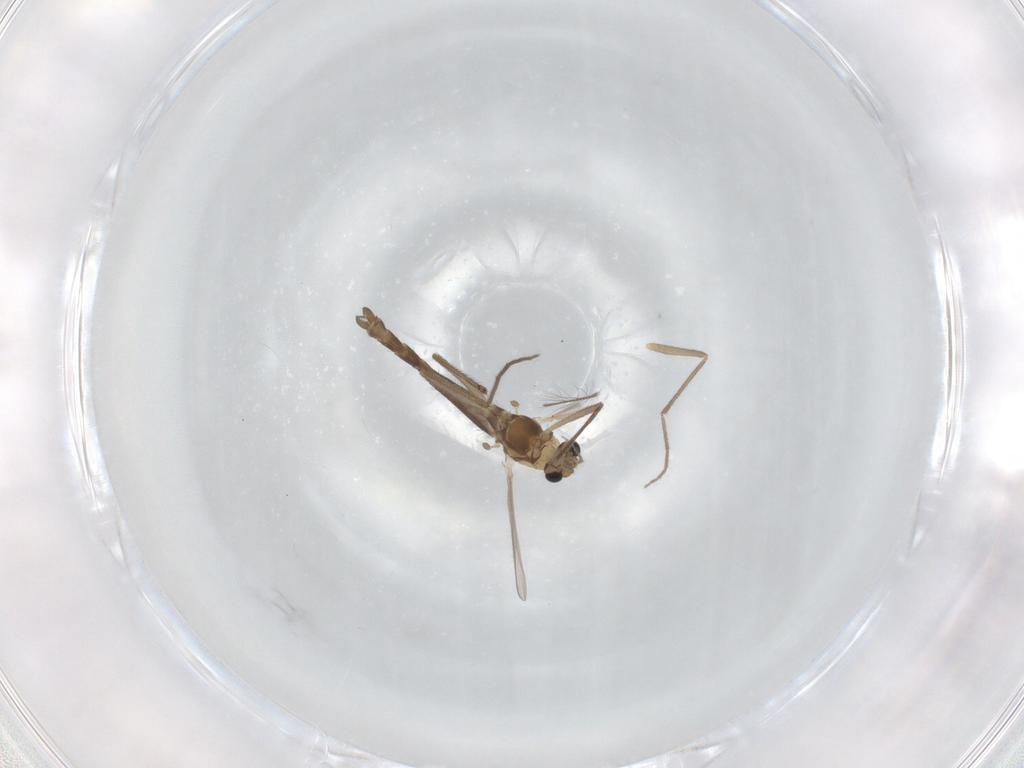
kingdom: Animalia
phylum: Arthropoda
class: Insecta
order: Diptera
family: Chironomidae
